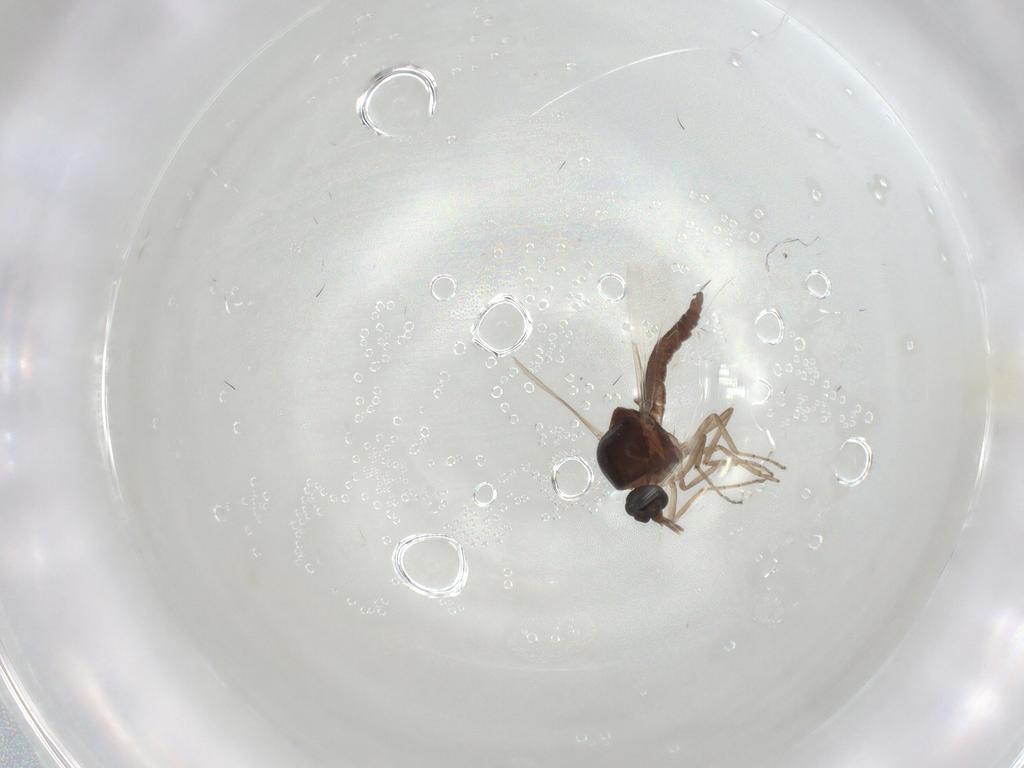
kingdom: Animalia
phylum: Arthropoda
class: Insecta
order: Diptera
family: Ceratopogonidae
